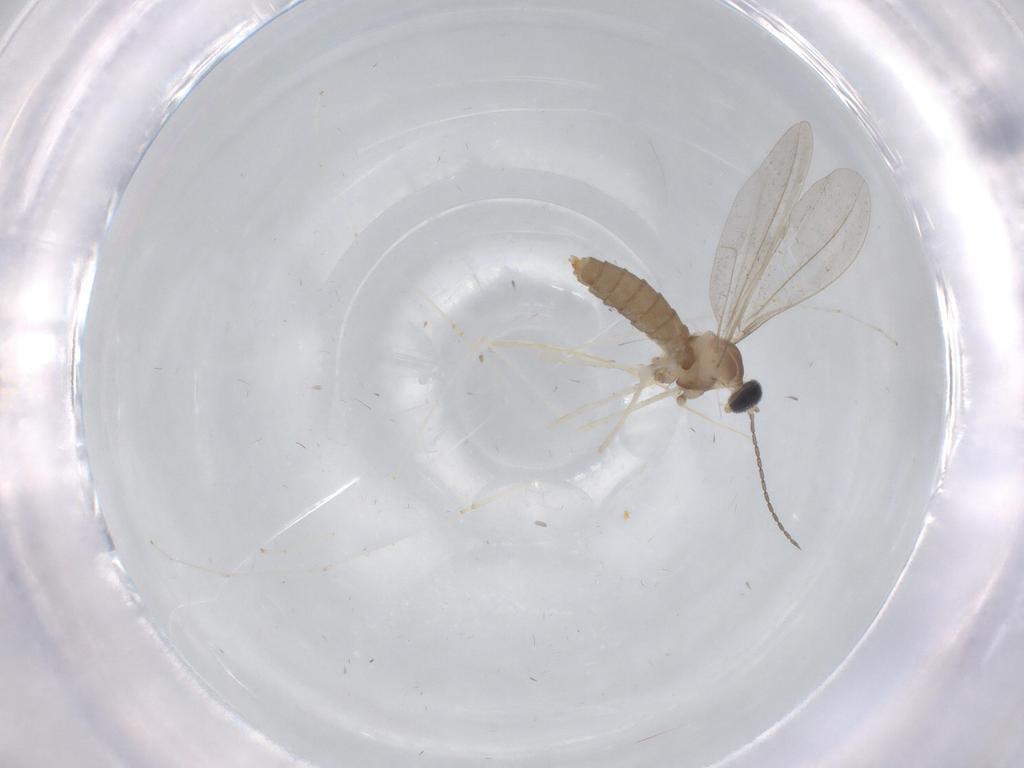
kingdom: Animalia
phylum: Arthropoda
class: Insecta
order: Diptera
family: Cecidomyiidae
